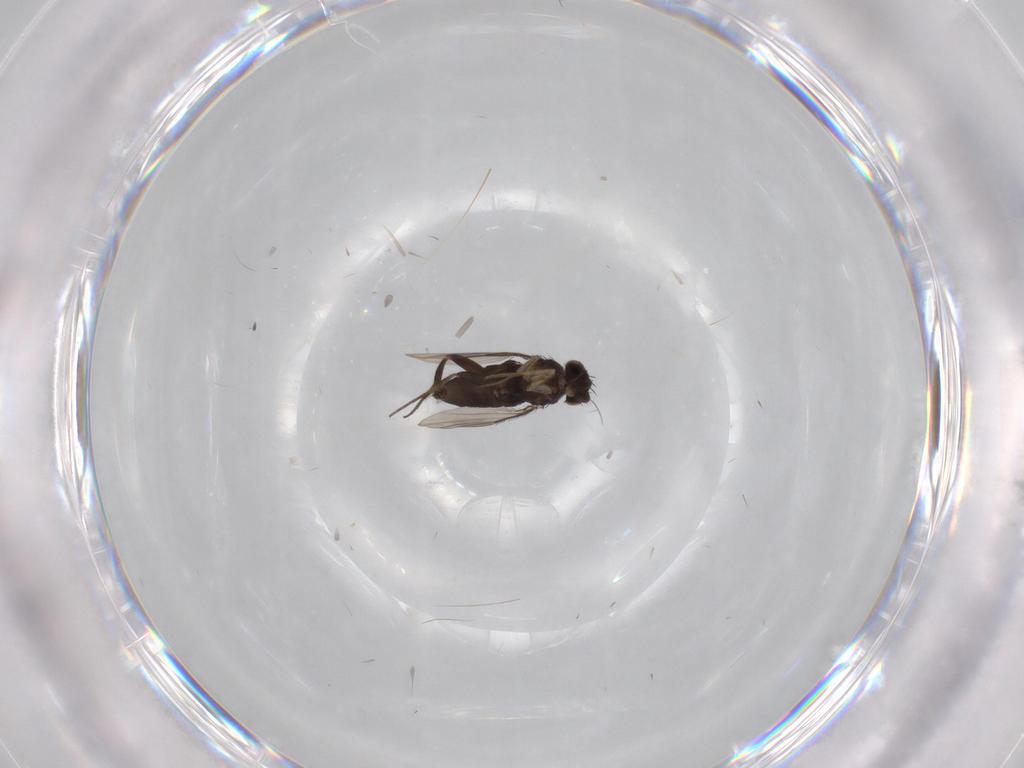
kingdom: Animalia
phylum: Arthropoda
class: Insecta
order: Diptera
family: Phoridae
